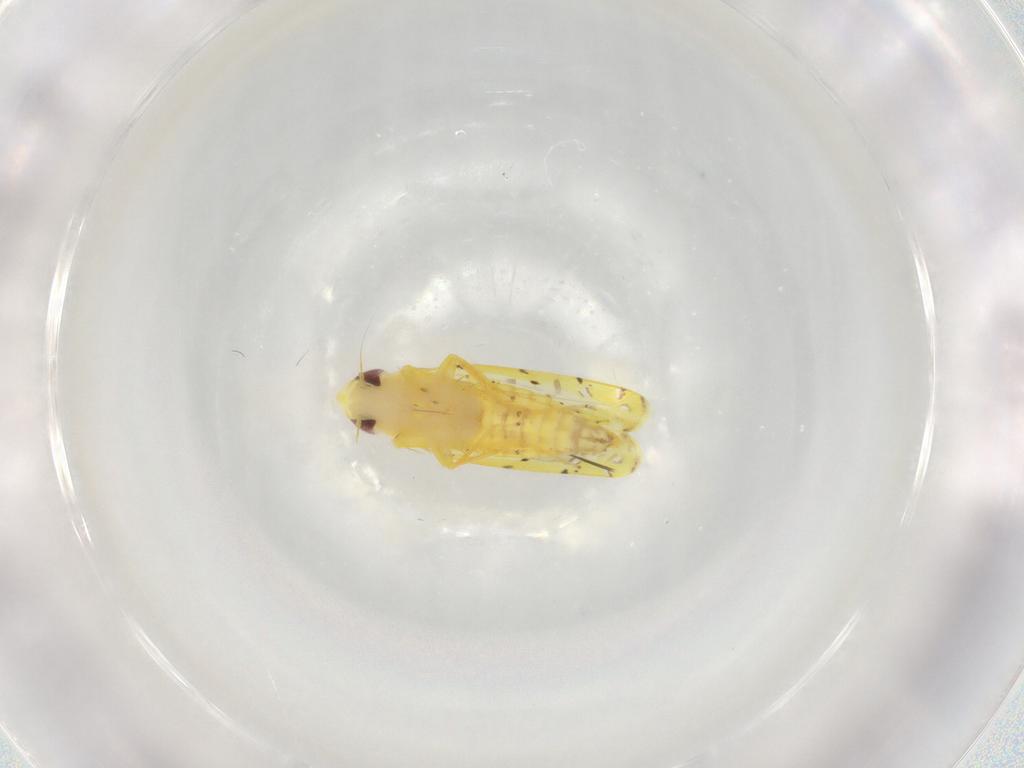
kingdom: Animalia
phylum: Arthropoda
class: Insecta
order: Hemiptera
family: Cicadellidae
